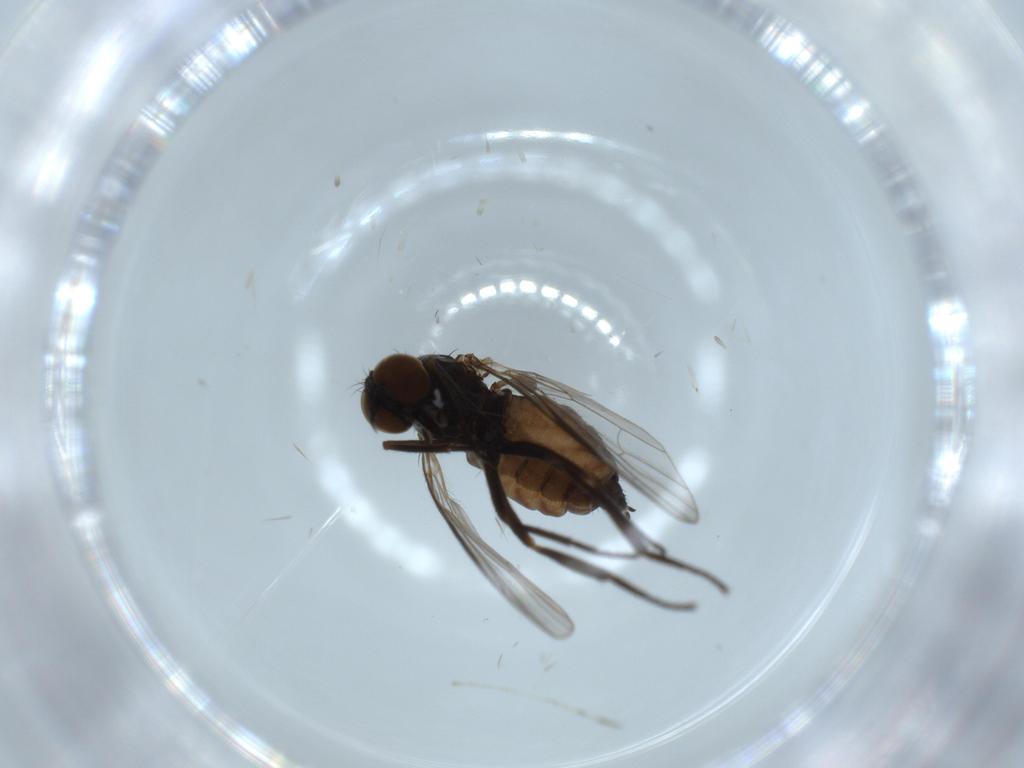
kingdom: Animalia
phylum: Arthropoda
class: Insecta
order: Diptera
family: Empididae
